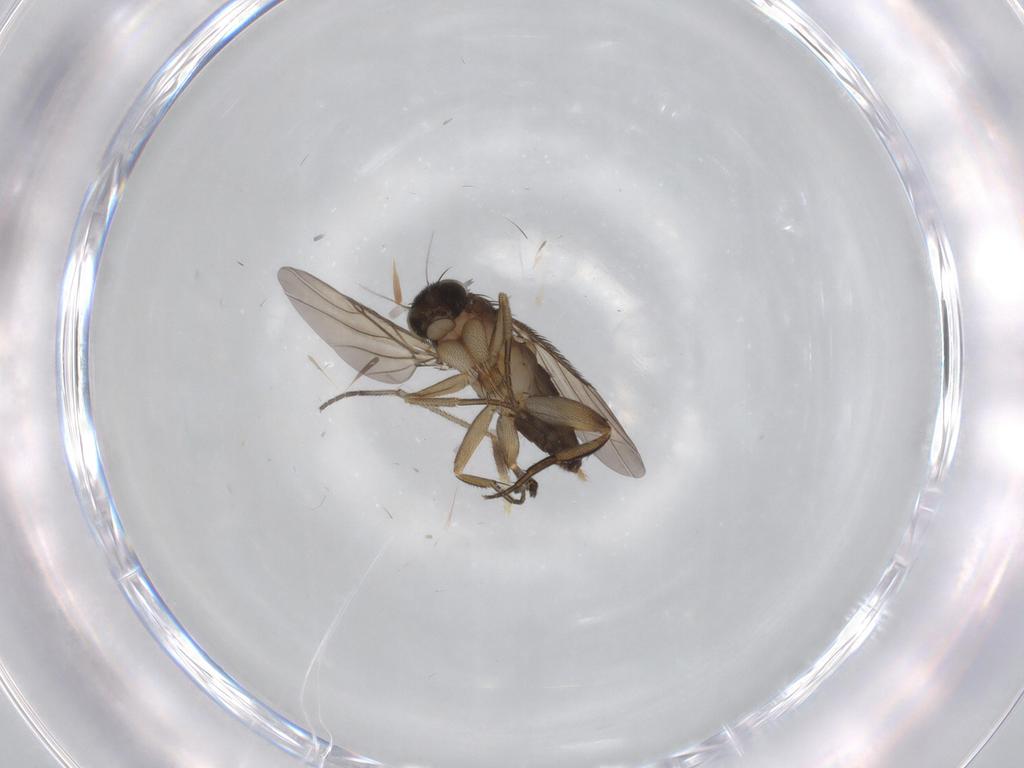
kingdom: Animalia
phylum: Arthropoda
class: Insecta
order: Diptera
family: Phoridae
